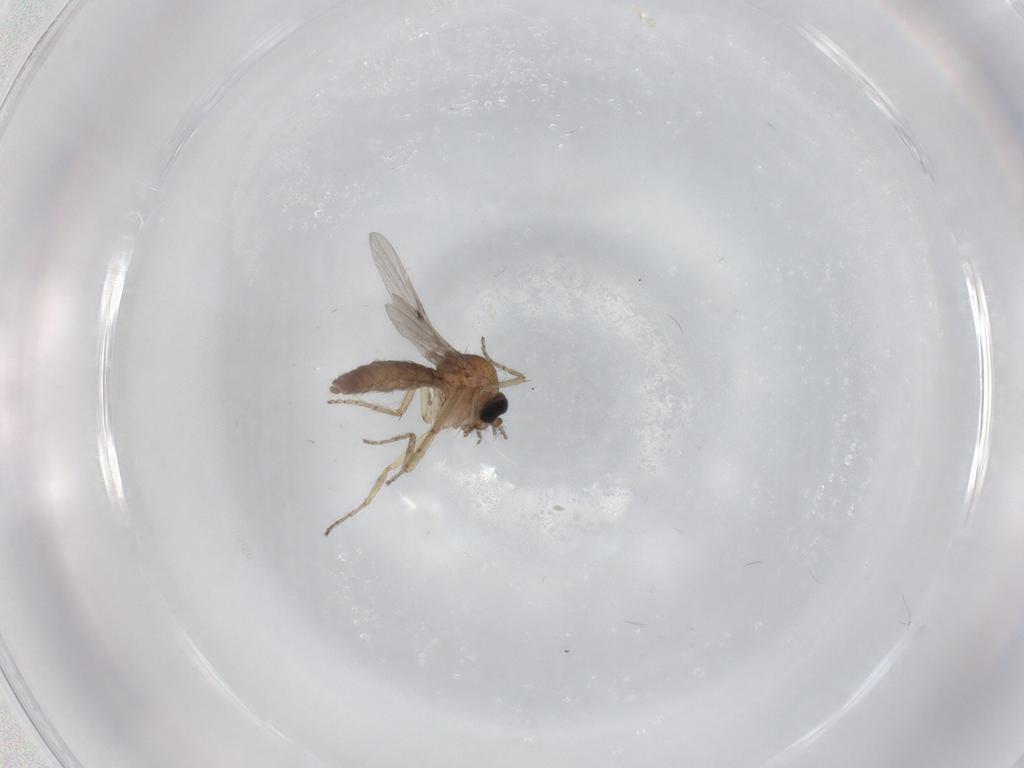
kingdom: Animalia
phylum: Arthropoda
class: Insecta
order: Diptera
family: Ceratopogonidae
